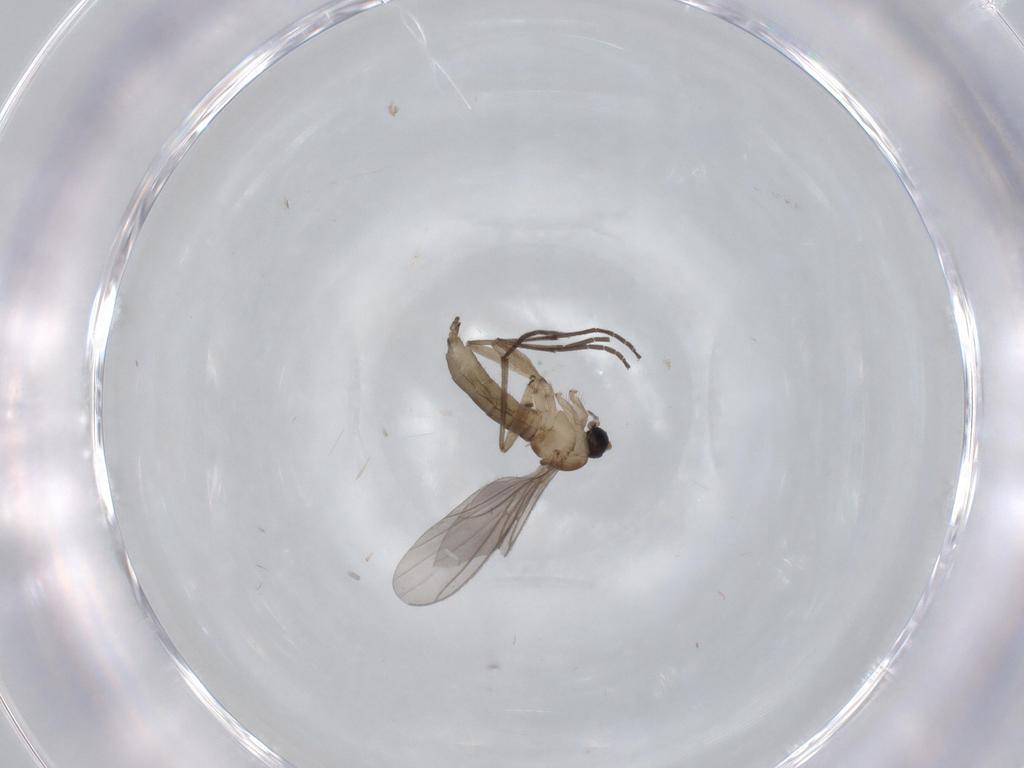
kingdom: Animalia
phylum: Arthropoda
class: Insecta
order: Diptera
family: Sciaridae
